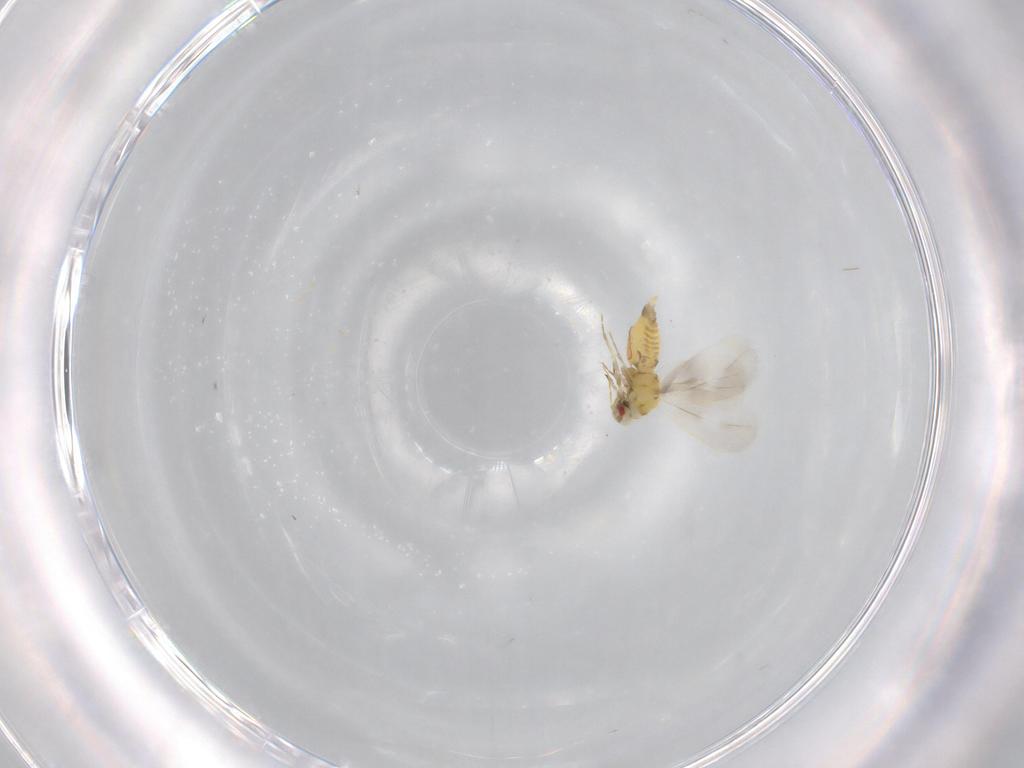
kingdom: Animalia
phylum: Arthropoda
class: Insecta
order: Hemiptera
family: Aleyrodidae
